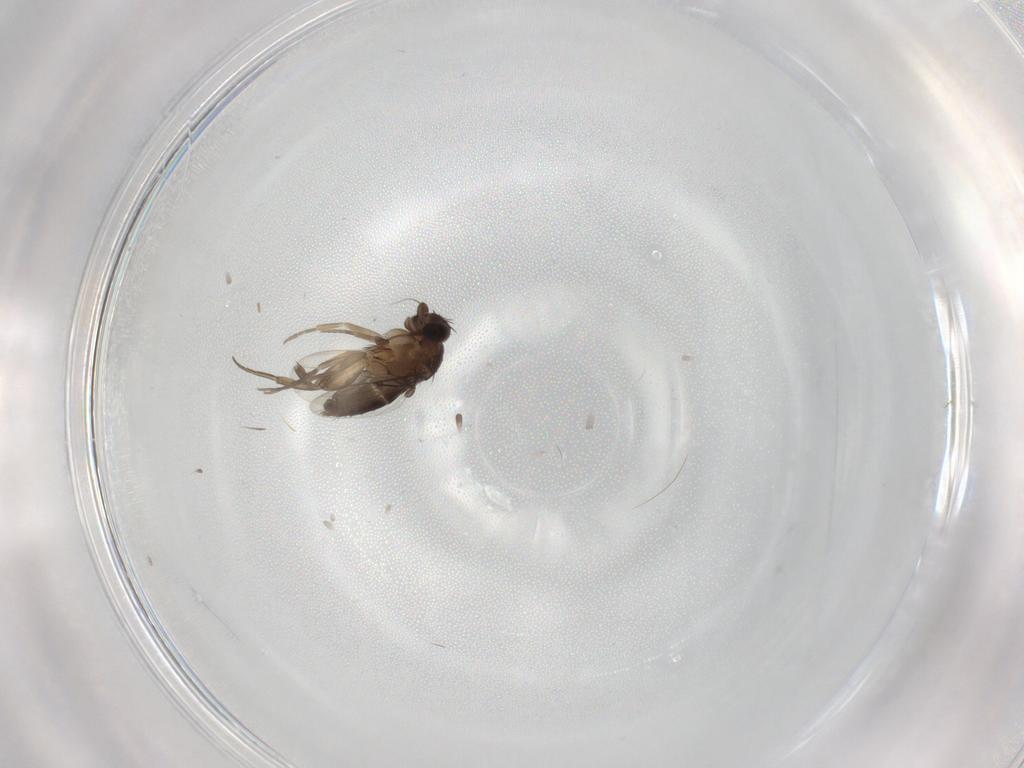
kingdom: Animalia
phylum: Arthropoda
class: Insecta
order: Diptera
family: Phoridae
